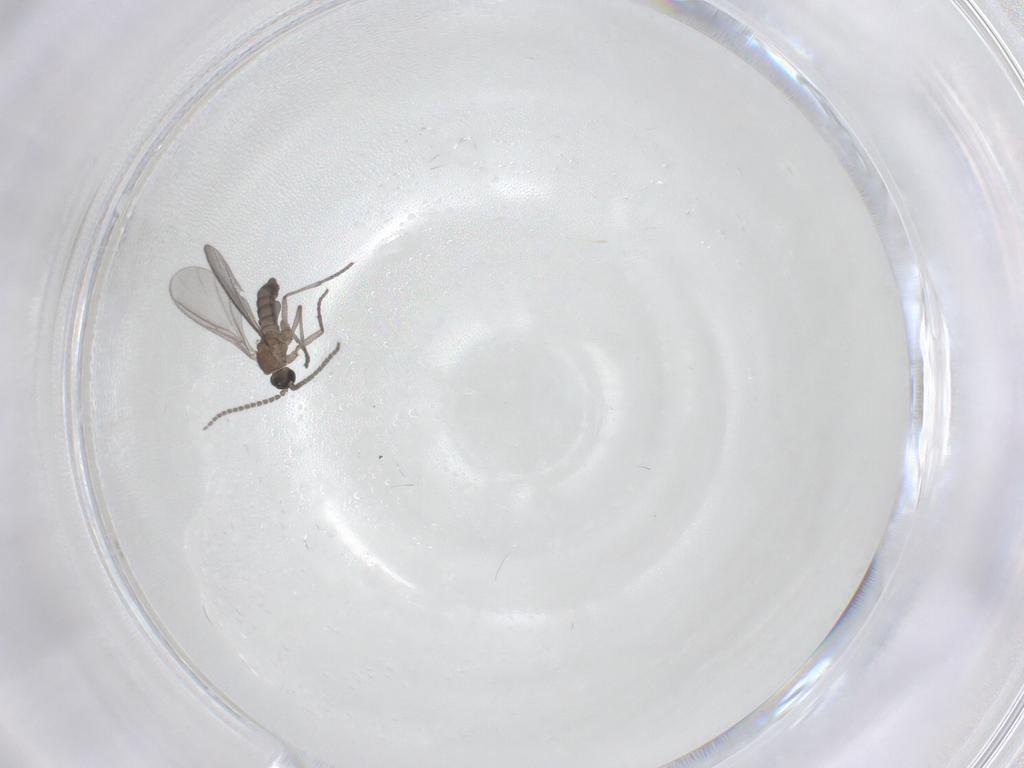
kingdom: Animalia
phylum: Arthropoda
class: Insecta
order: Diptera
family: Sciaridae
